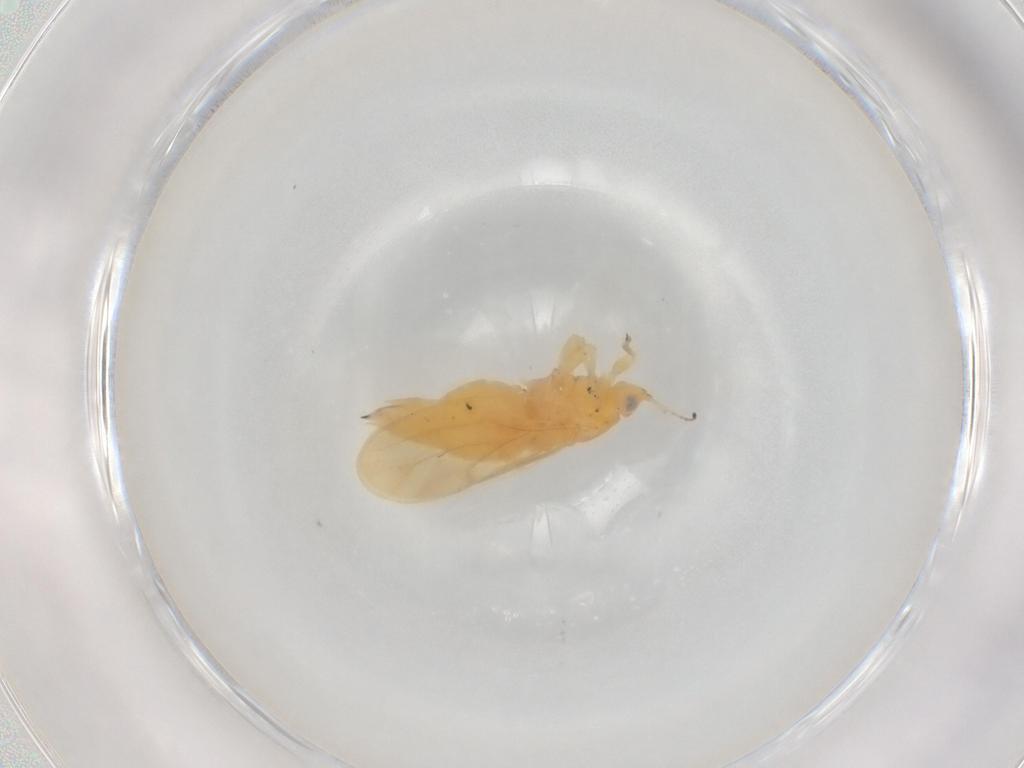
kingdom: Animalia
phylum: Arthropoda
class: Insecta
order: Hemiptera
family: Aphalaridae
